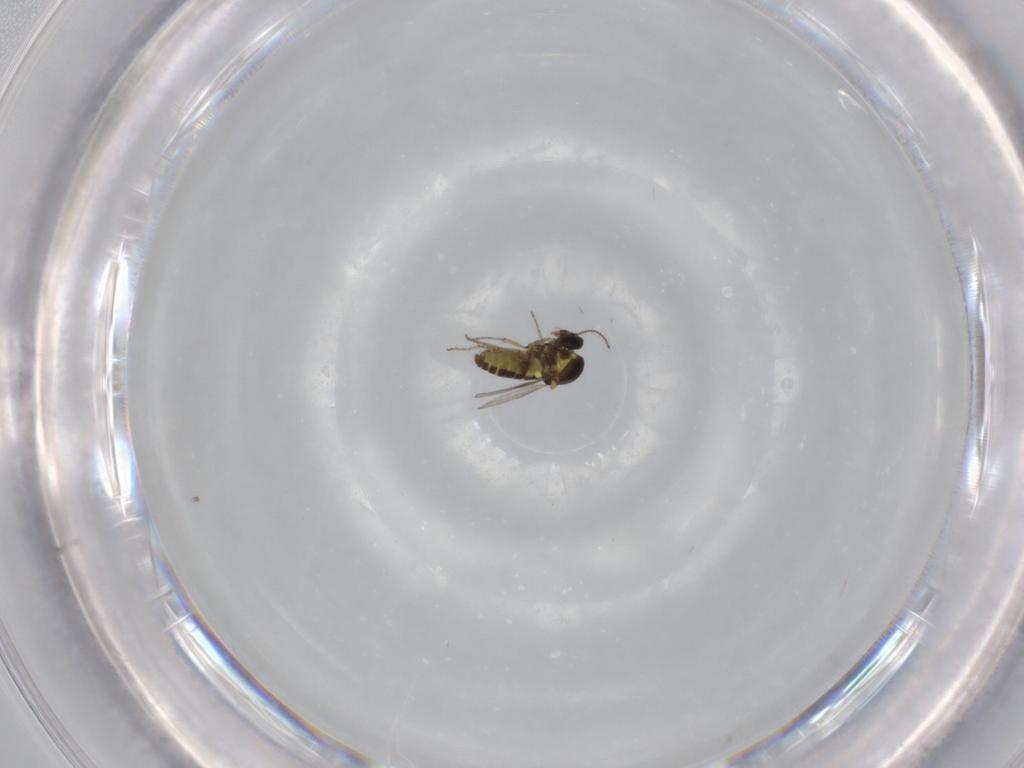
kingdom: Animalia
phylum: Arthropoda
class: Insecta
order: Diptera
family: Ceratopogonidae
